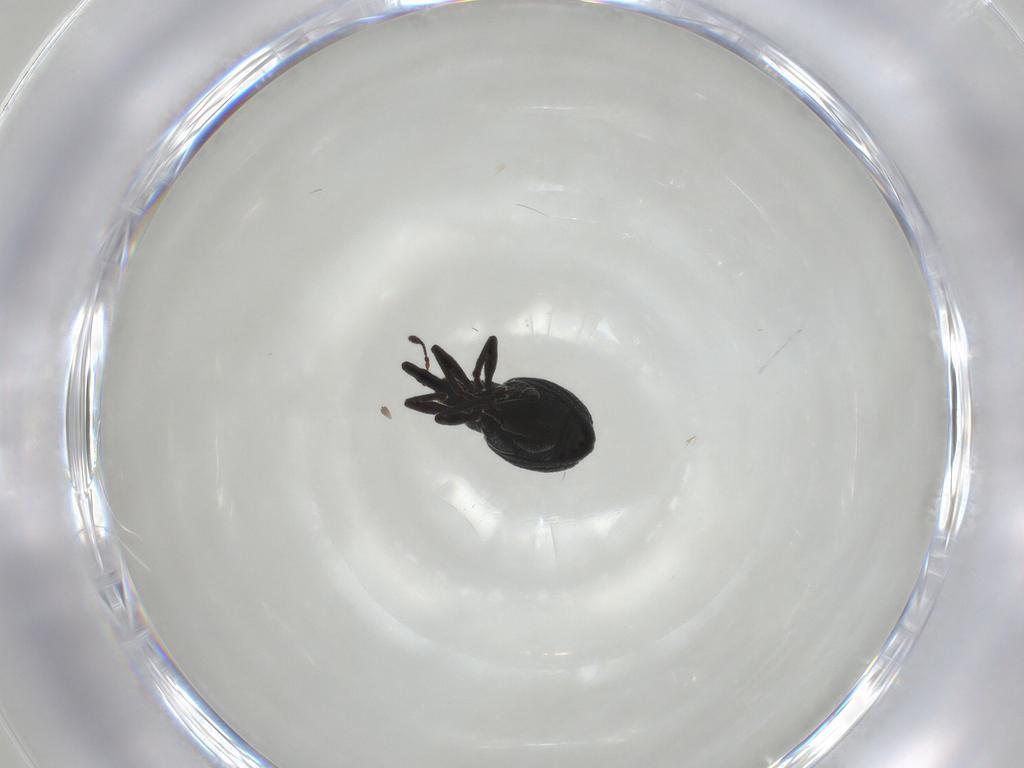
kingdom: Animalia
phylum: Arthropoda
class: Insecta
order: Coleoptera
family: Brentidae
